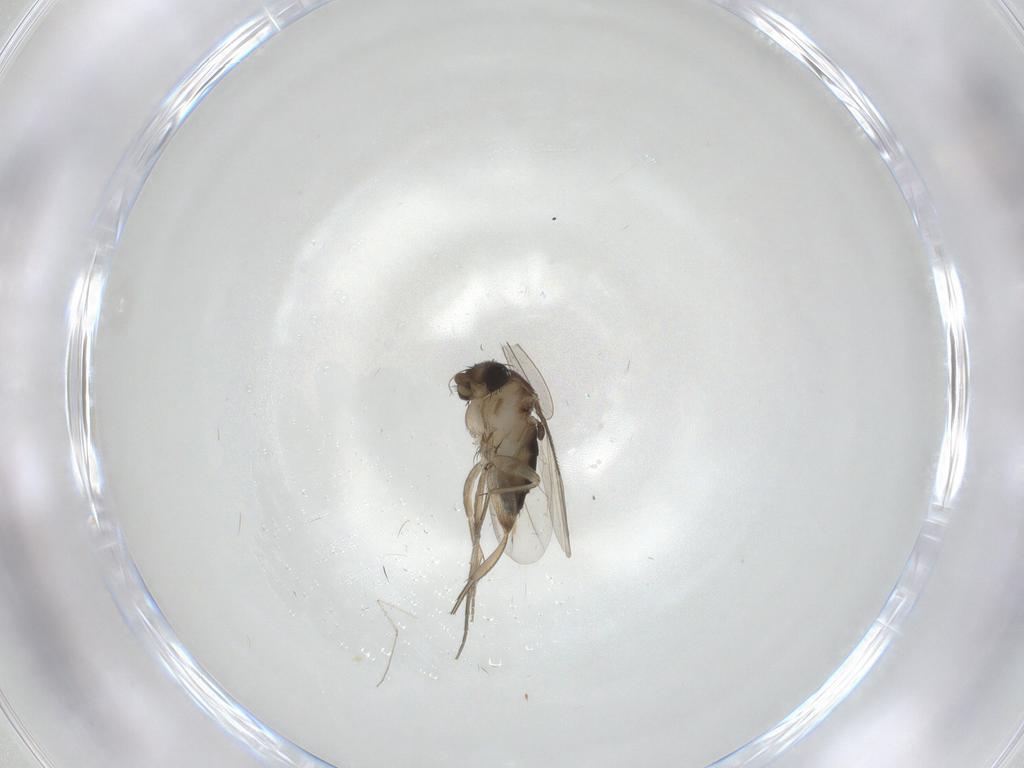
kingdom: Animalia
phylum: Arthropoda
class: Insecta
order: Diptera
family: Phoridae
